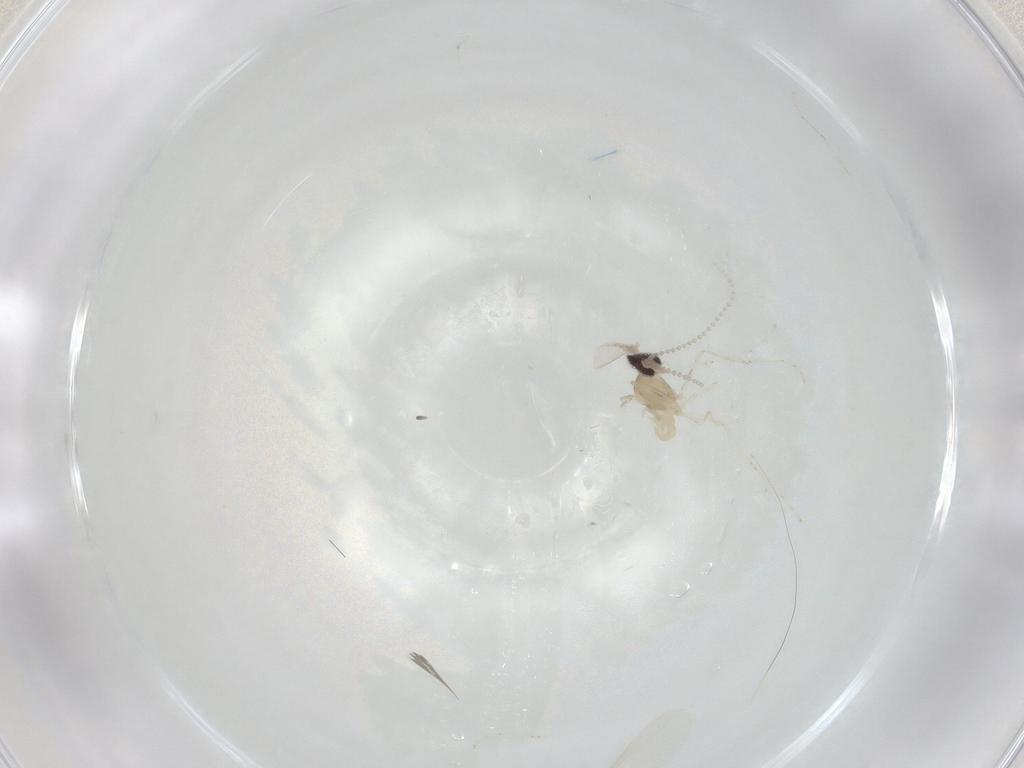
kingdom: Animalia
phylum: Arthropoda
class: Insecta
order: Diptera
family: Cecidomyiidae
